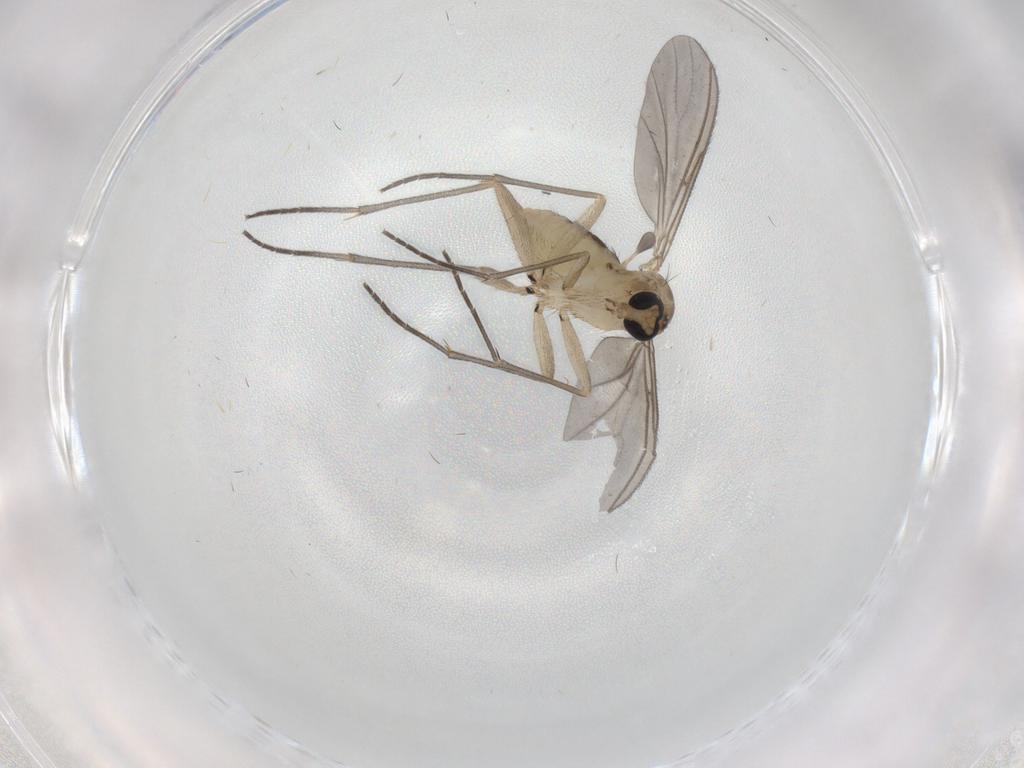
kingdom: Animalia
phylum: Arthropoda
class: Insecta
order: Diptera
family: Sciaridae
